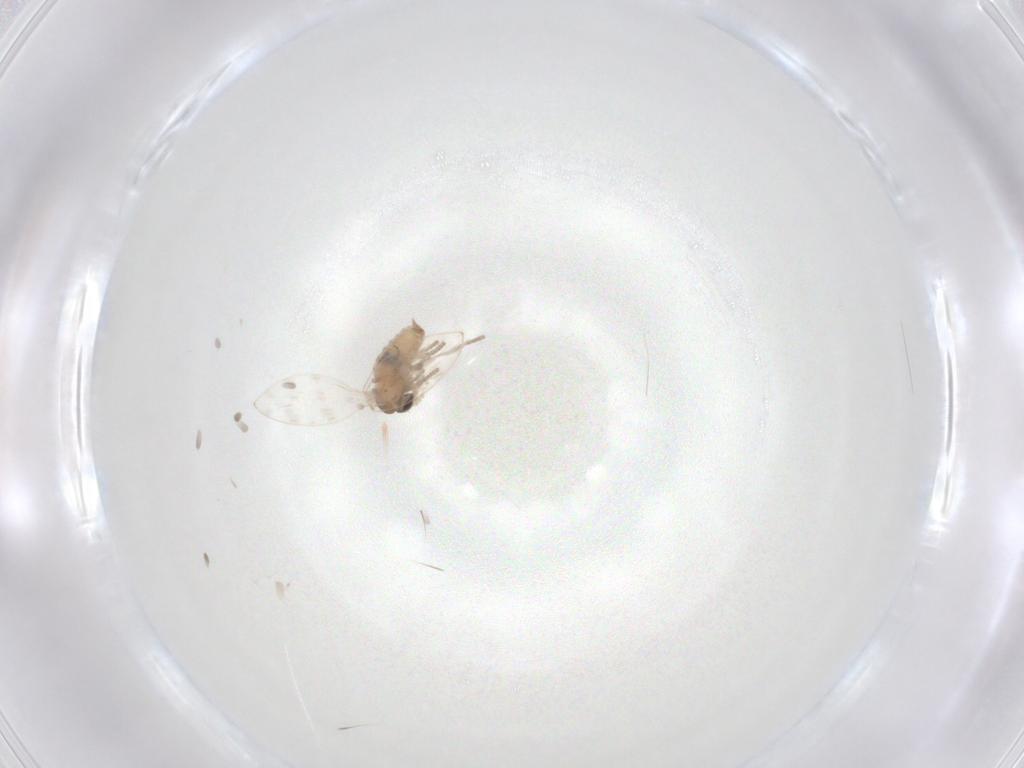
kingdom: Animalia
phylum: Arthropoda
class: Insecta
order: Diptera
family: Psychodidae
